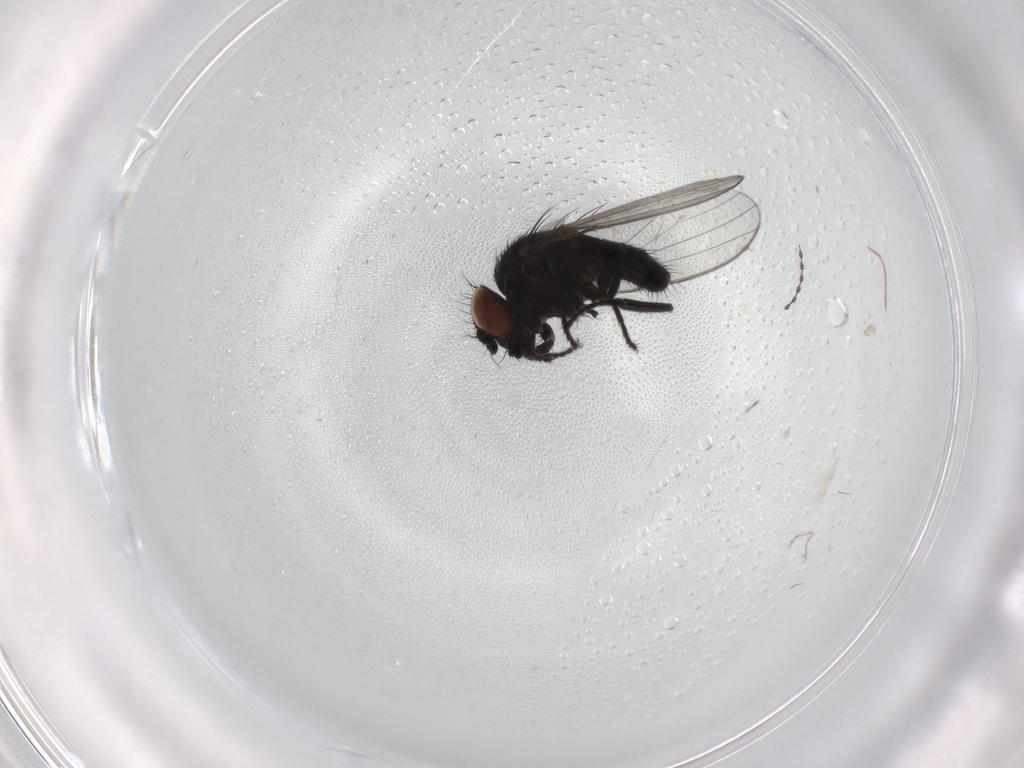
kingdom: Animalia
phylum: Arthropoda
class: Insecta
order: Diptera
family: Milichiidae
